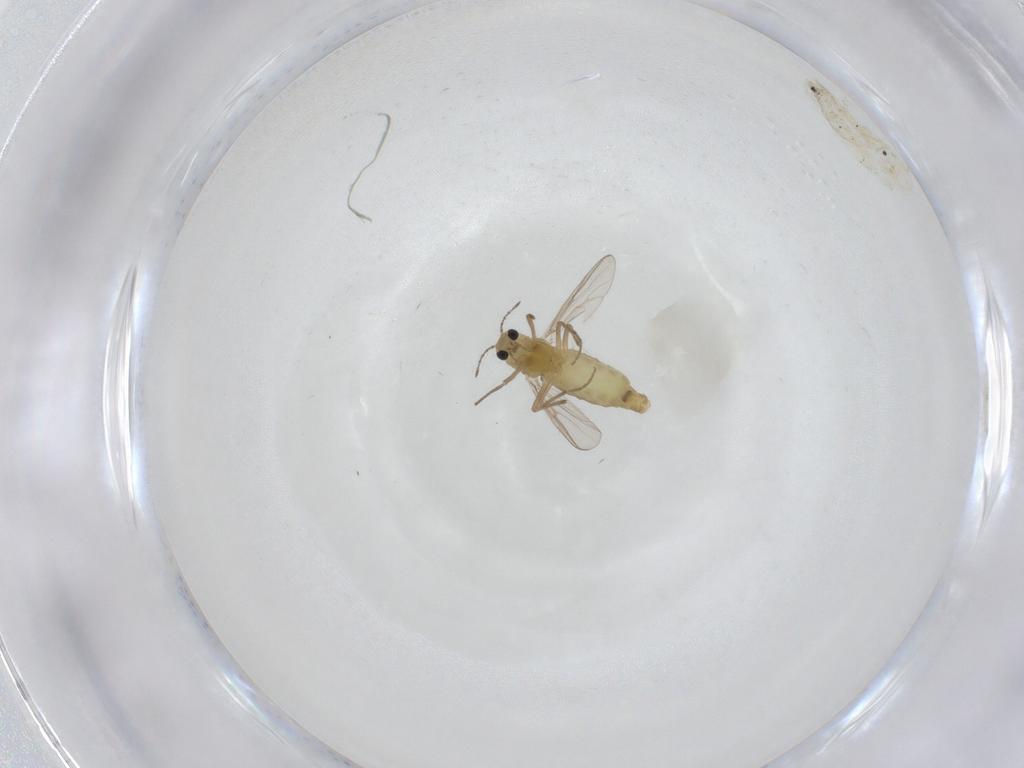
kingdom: Animalia
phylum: Arthropoda
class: Insecta
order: Diptera
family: Chironomidae
